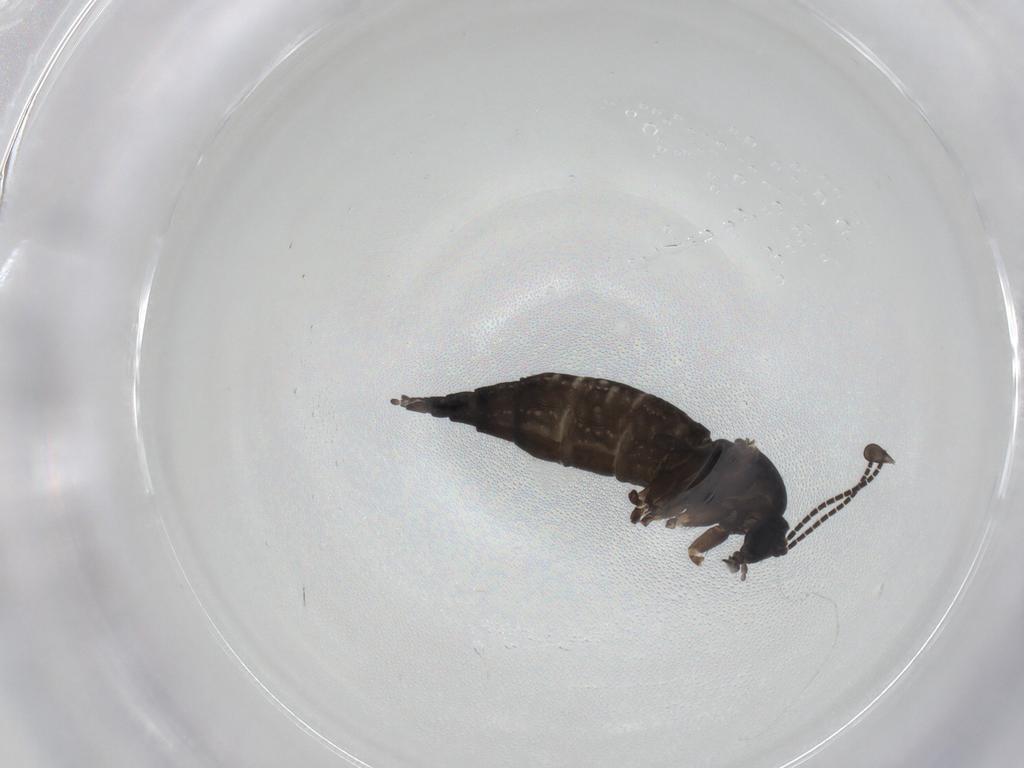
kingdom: Animalia
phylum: Arthropoda
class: Insecta
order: Diptera
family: Sciaridae
